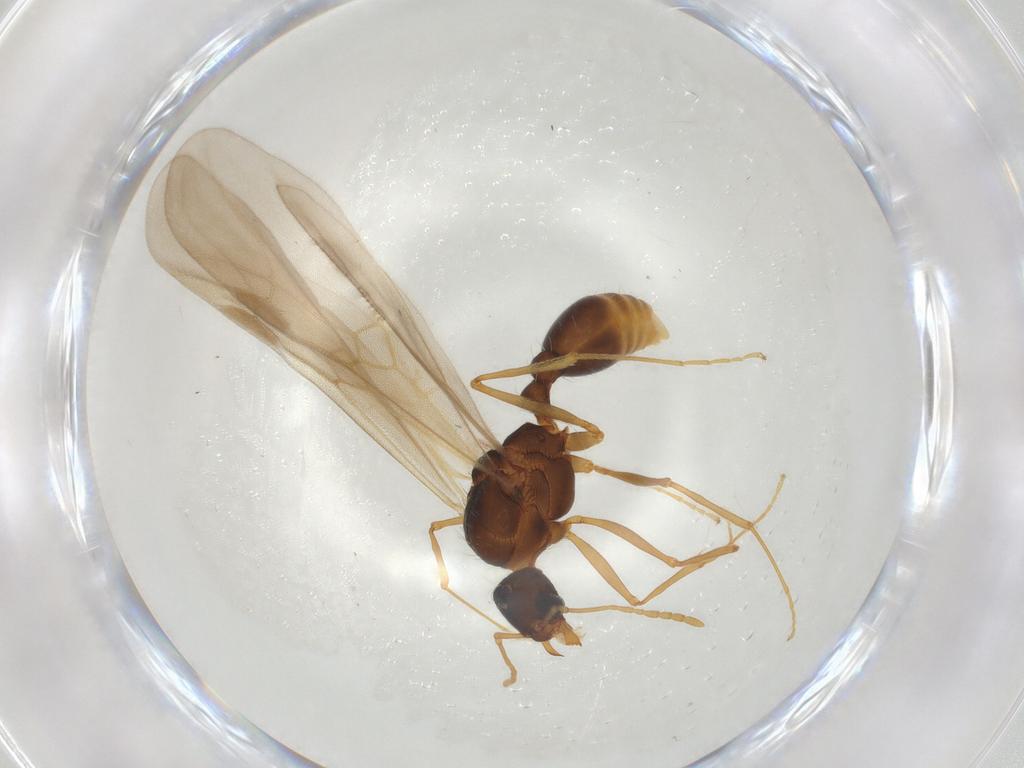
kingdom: Animalia
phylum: Arthropoda
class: Insecta
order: Hymenoptera
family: Formicidae
